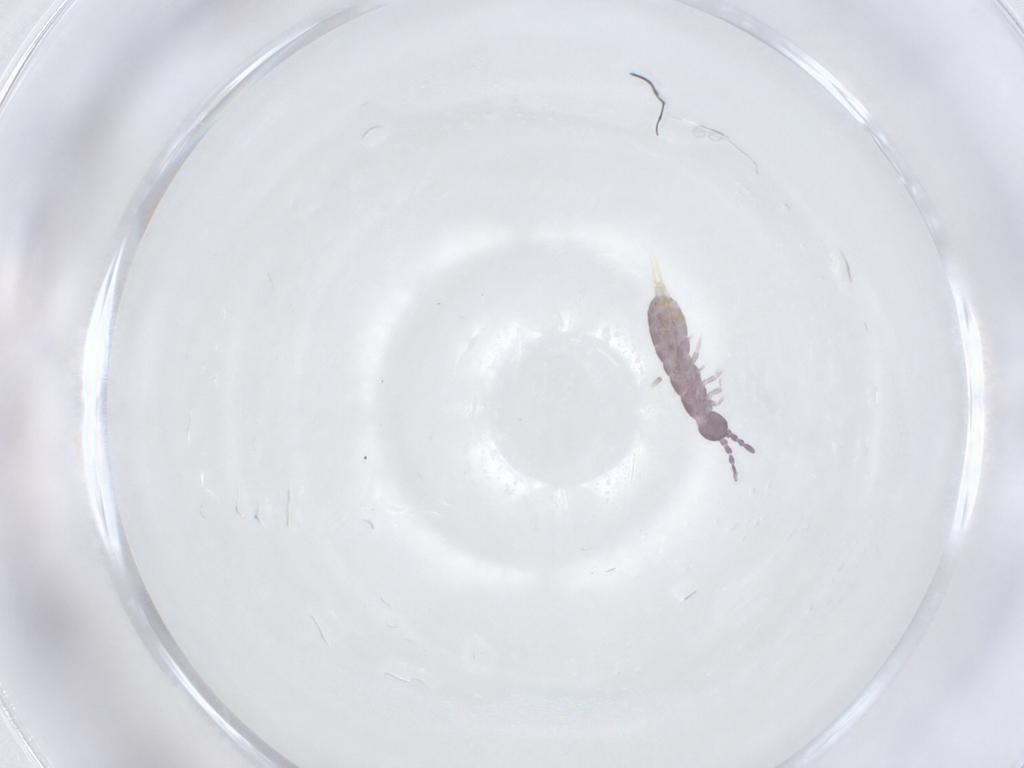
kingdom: Animalia
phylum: Arthropoda
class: Collembola
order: Entomobryomorpha
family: Isotomidae
